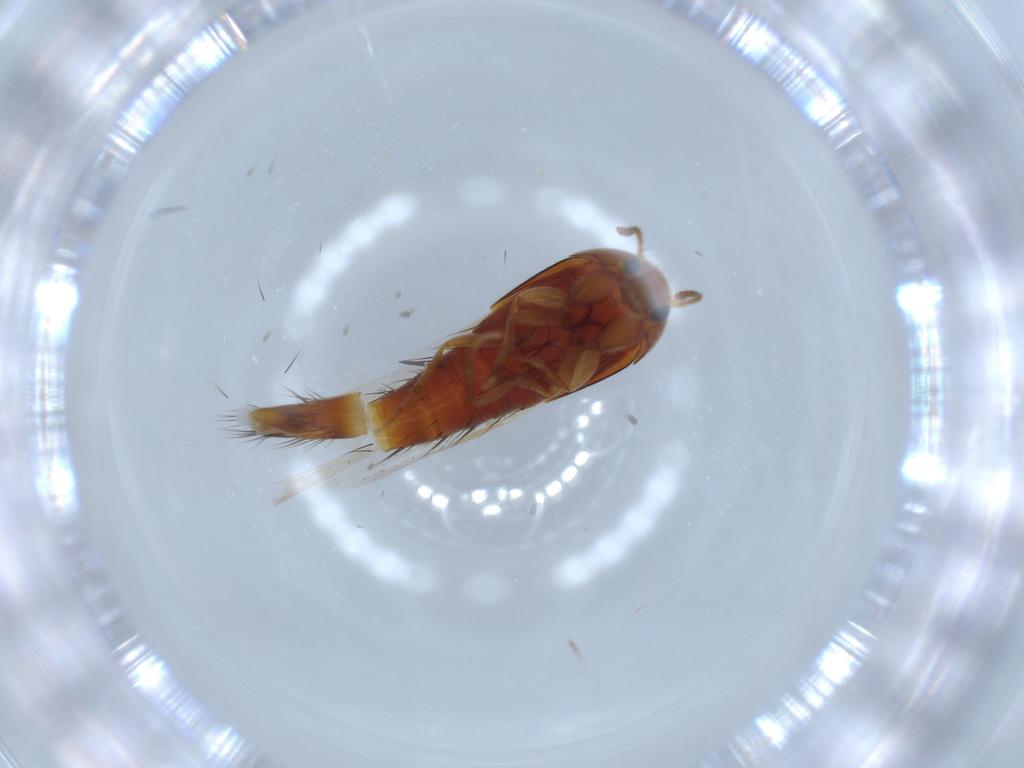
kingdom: Animalia
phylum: Arthropoda
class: Insecta
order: Coleoptera
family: Staphylinidae
